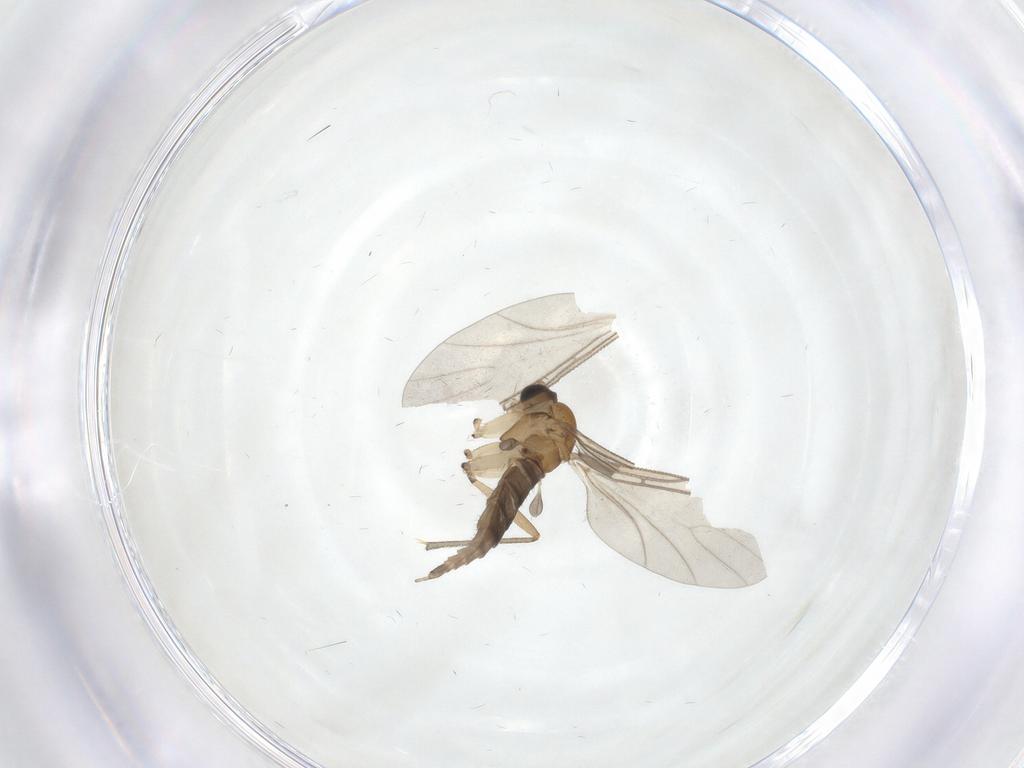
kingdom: Animalia
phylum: Arthropoda
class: Insecta
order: Diptera
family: Sciaridae
